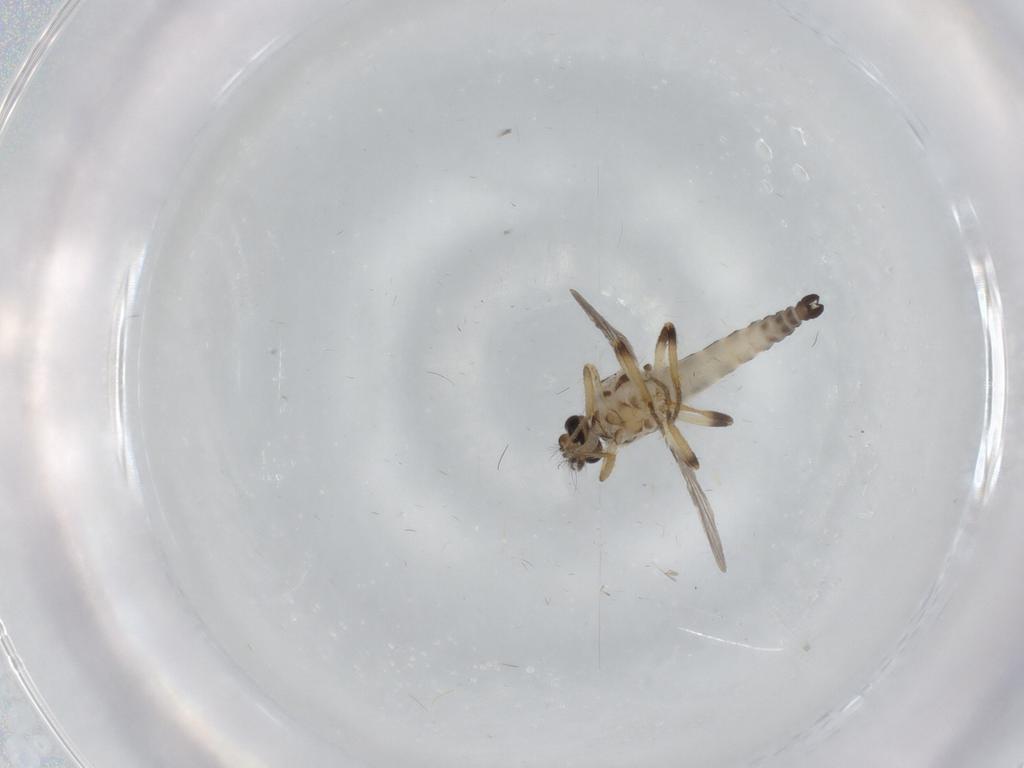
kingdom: Animalia
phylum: Arthropoda
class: Insecta
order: Diptera
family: Ceratopogonidae
